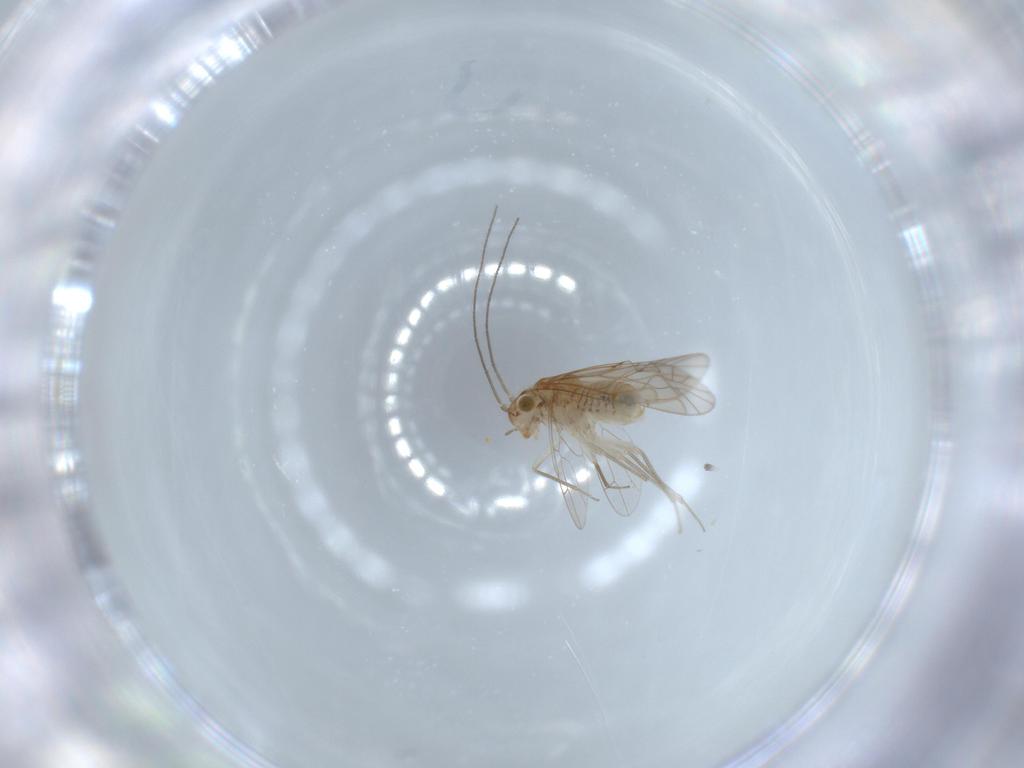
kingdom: Animalia
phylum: Arthropoda
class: Insecta
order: Psocodea
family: Lachesillidae
